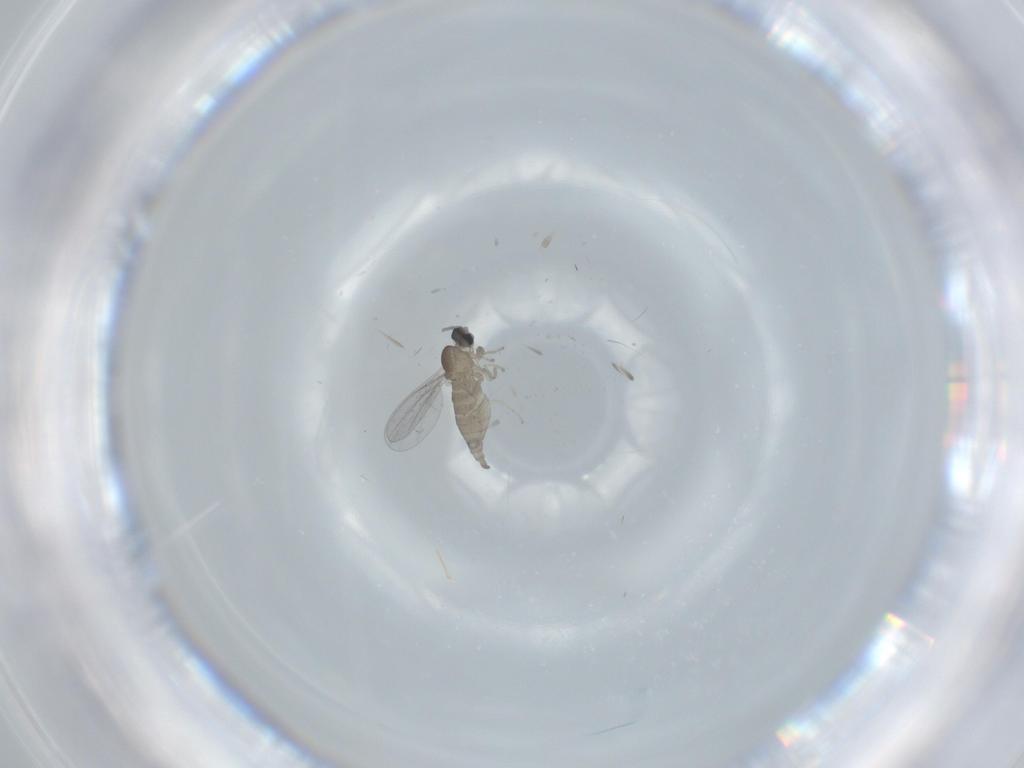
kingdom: Animalia
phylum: Arthropoda
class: Insecta
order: Diptera
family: Cecidomyiidae
